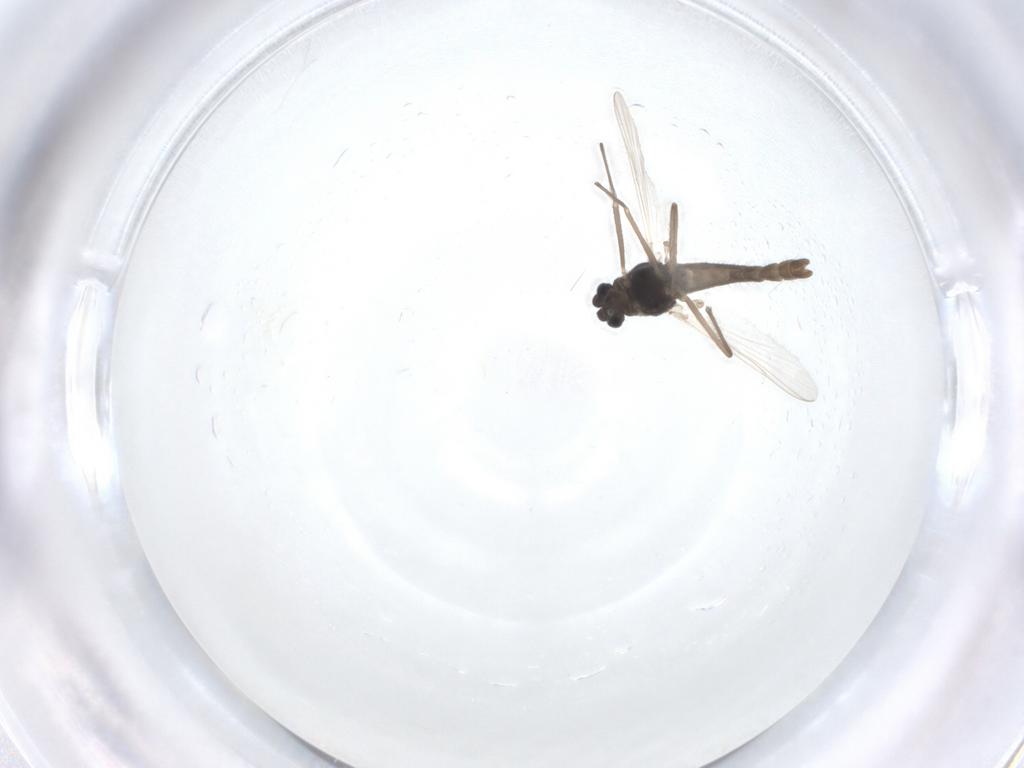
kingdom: Animalia
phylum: Arthropoda
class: Insecta
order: Diptera
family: Chironomidae
